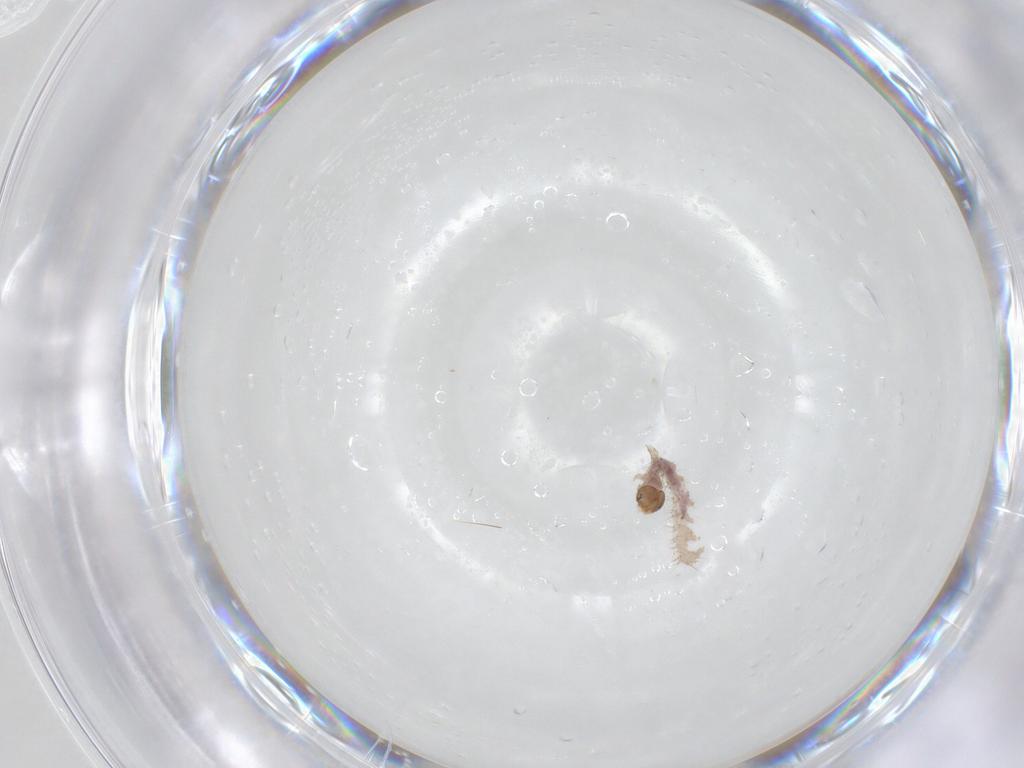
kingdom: Animalia
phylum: Arthropoda
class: Insecta
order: Lepidoptera
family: Erebidae
